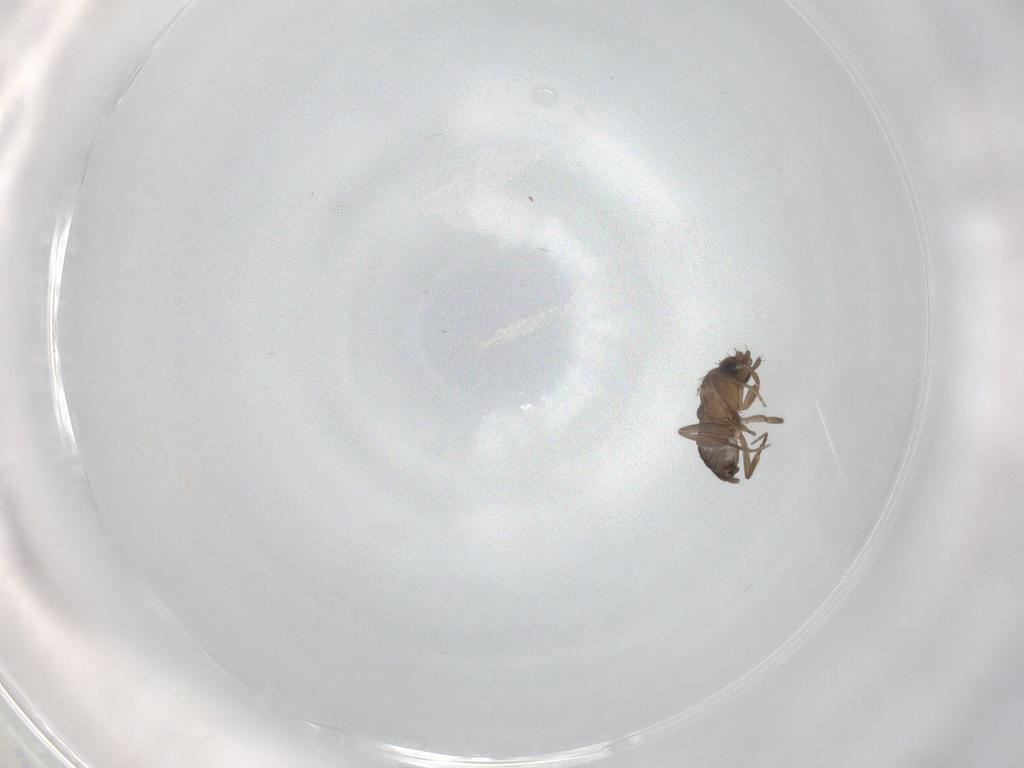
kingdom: Animalia
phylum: Arthropoda
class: Insecta
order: Diptera
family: Phoridae
